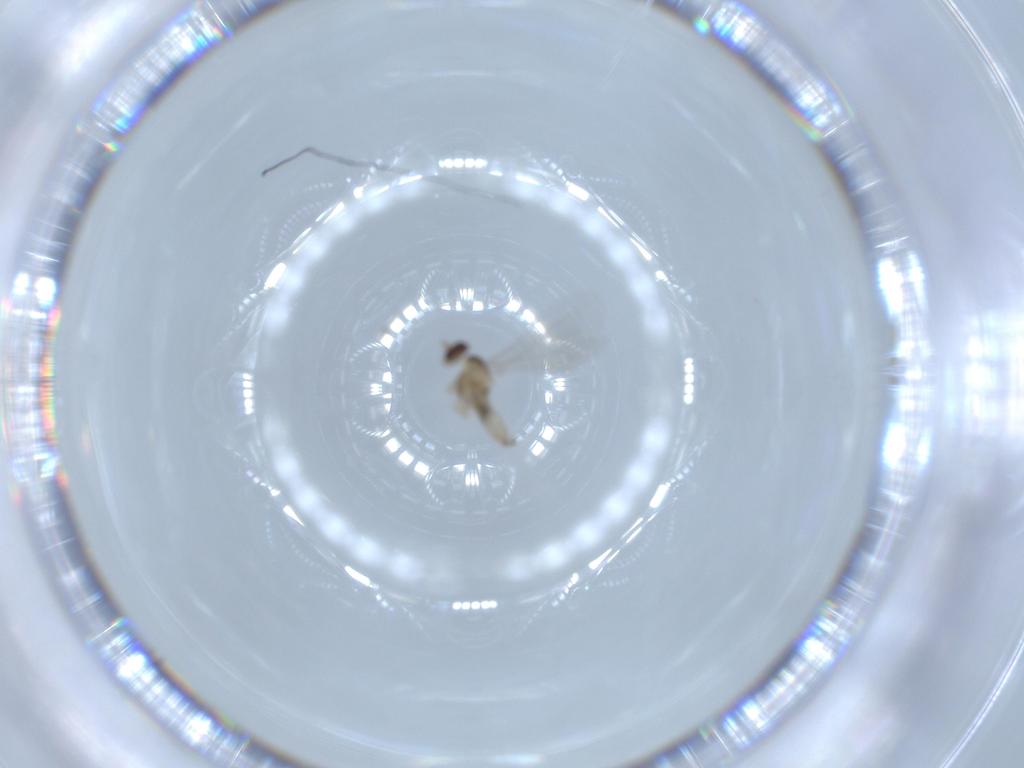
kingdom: Animalia
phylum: Arthropoda
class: Insecta
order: Diptera
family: Cecidomyiidae
